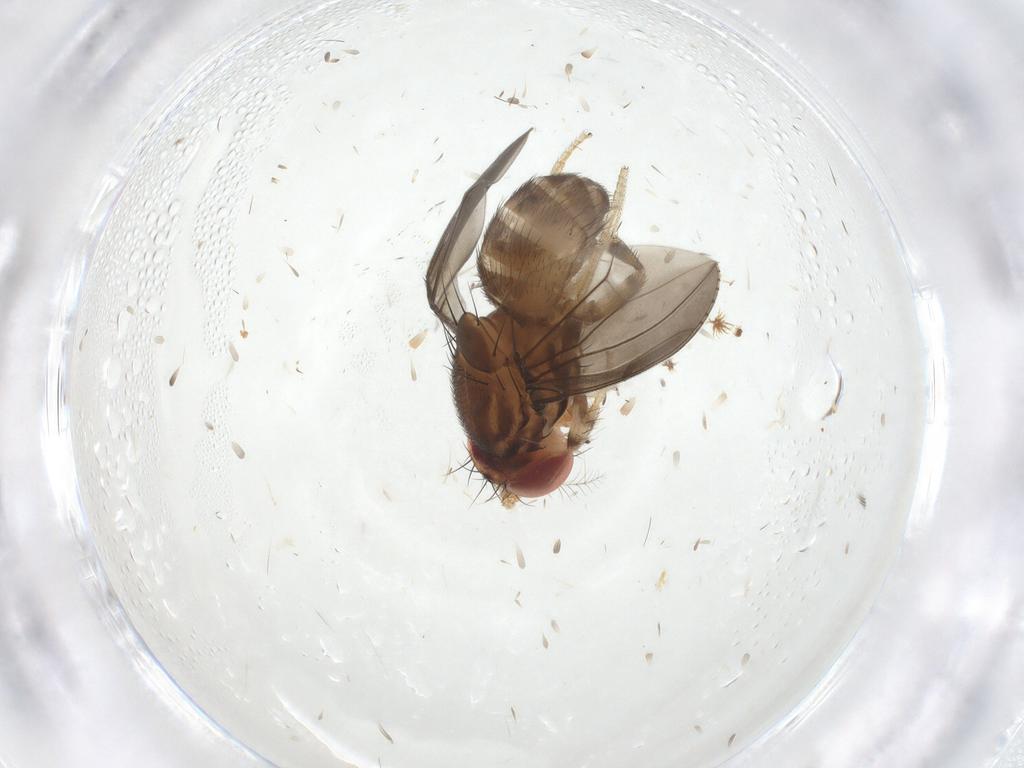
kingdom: Animalia
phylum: Arthropoda
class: Insecta
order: Diptera
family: Drosophilidae
